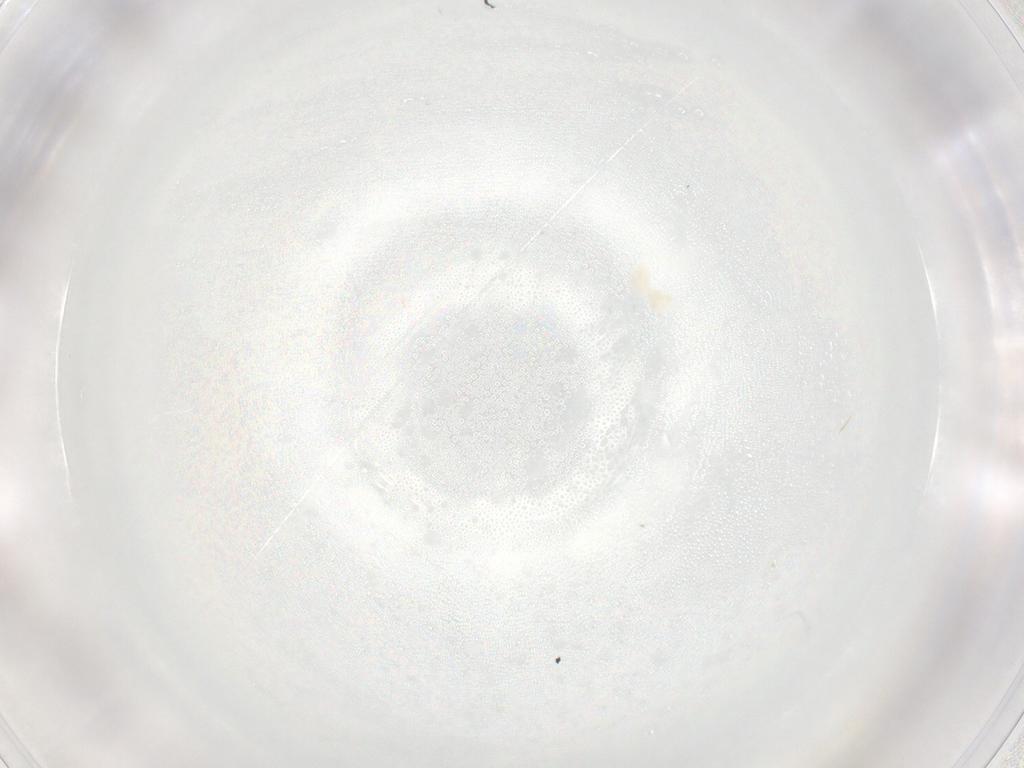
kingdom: Animalia
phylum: Arthropoda
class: Arachnida
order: Trombidiformes
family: Eupodidae
